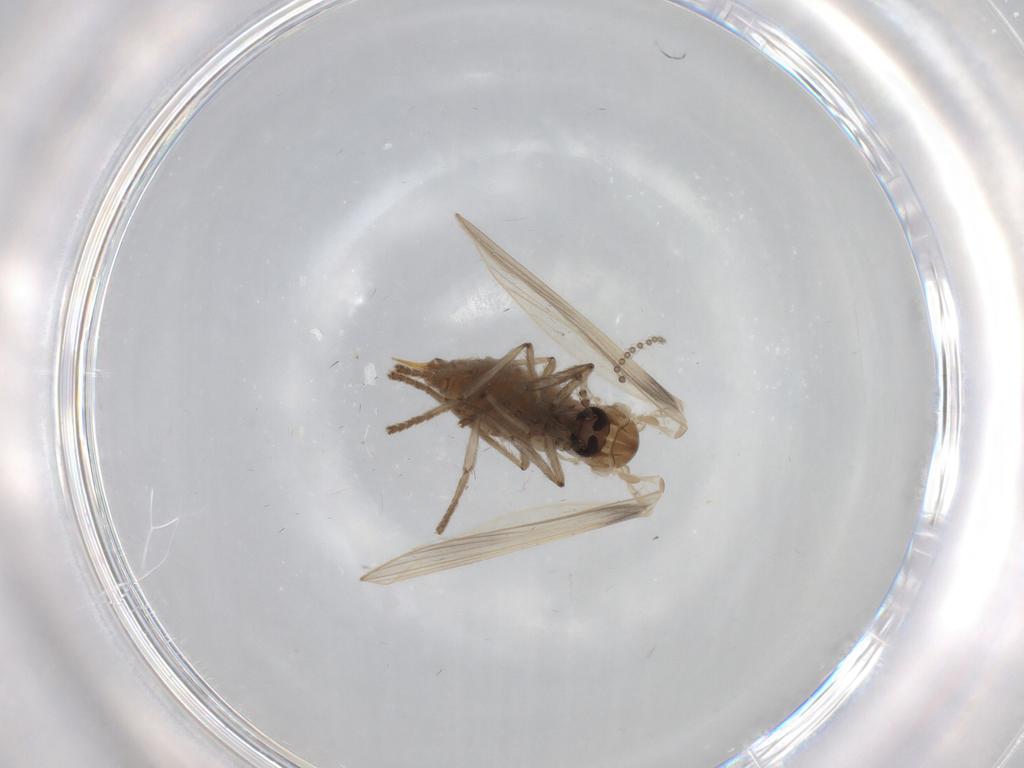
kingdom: Animalia
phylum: Arthropoda
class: Insecta
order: Diptera
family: Psychodidae
